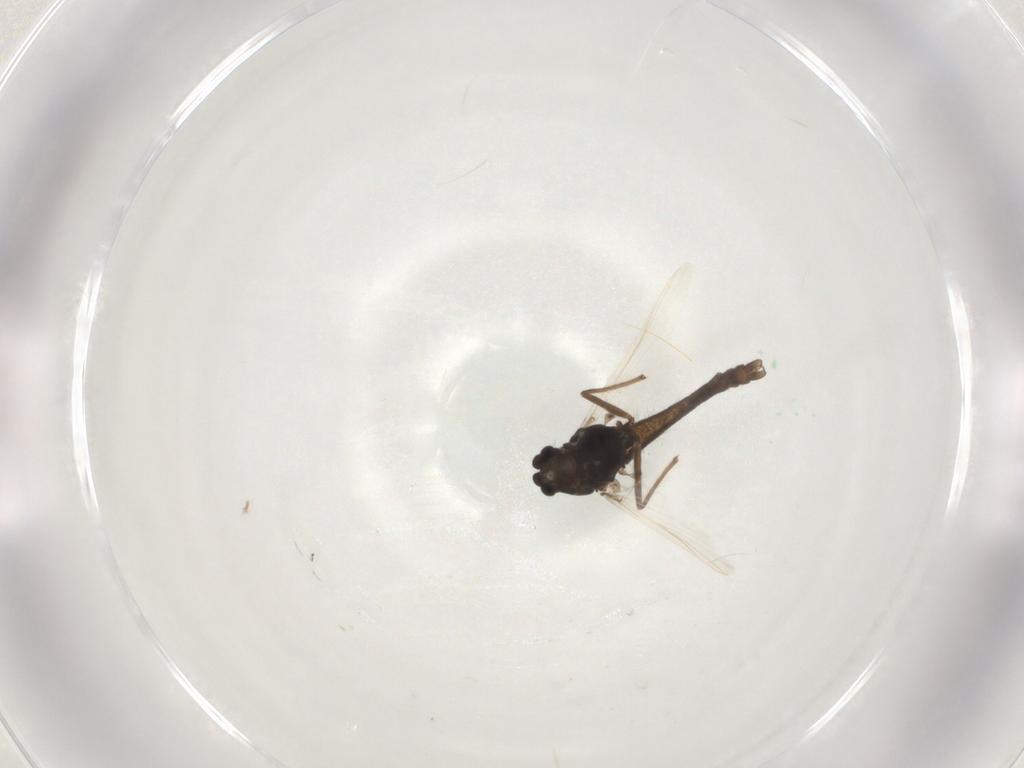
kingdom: Animalia
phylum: Arthropoda
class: Insecta
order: Diptera
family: Chironomidae
